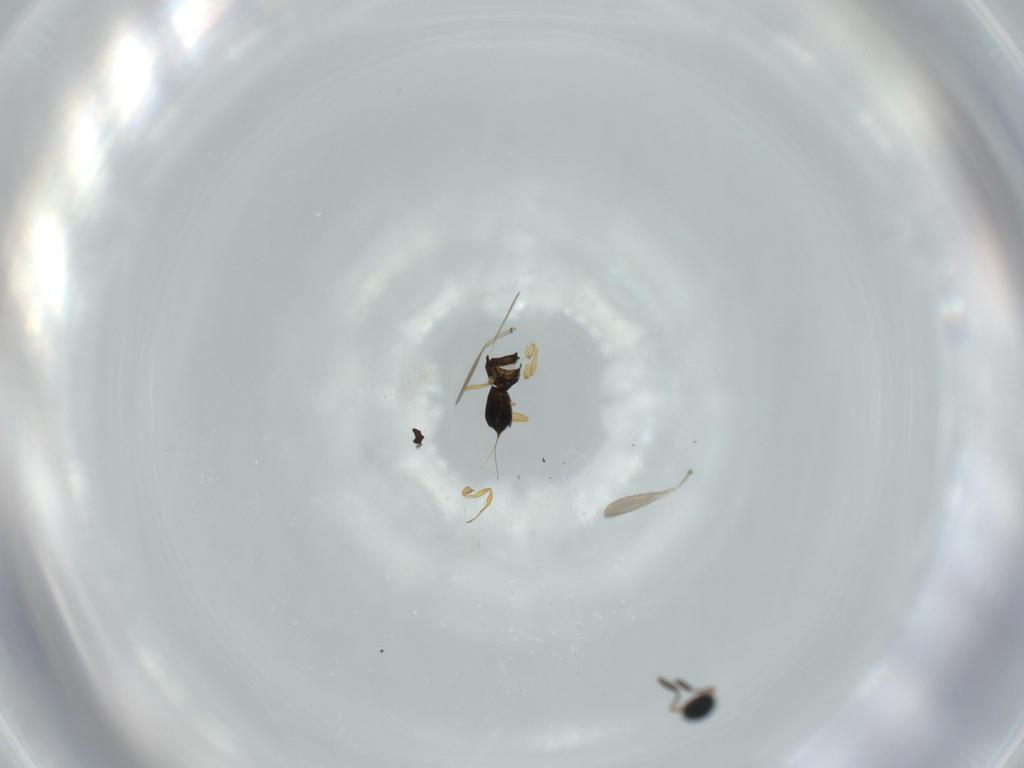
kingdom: Animalia
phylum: Arthropoda
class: Insecta
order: Hymenoptera
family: Scelionidae
